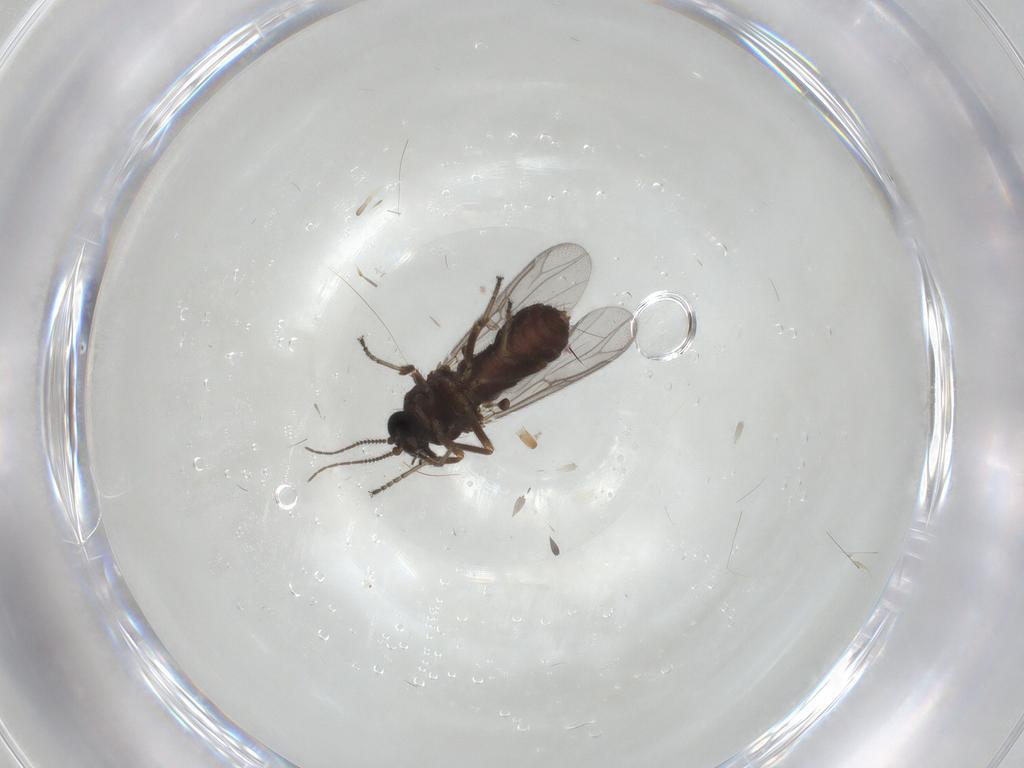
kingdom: Animalia
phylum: Arthropoda
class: Insecta
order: Diptera
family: Ceratopogonidae
